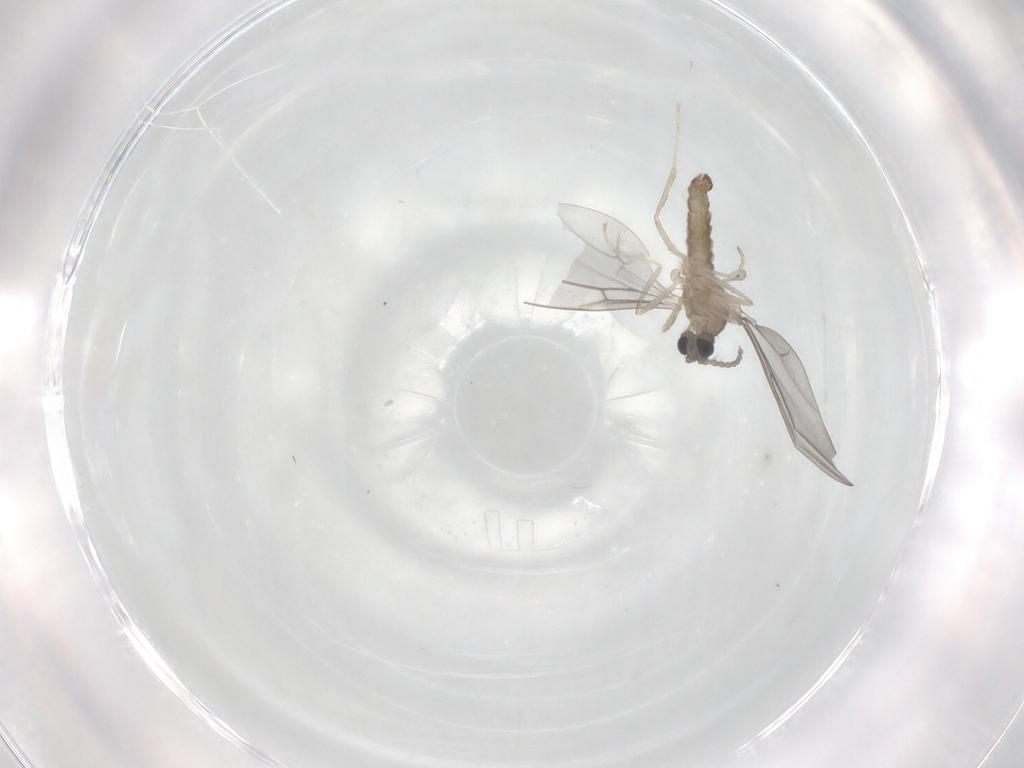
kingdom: Animalia
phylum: Arthropoda
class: Insecta
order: Diptera
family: Cecidomyiidae
